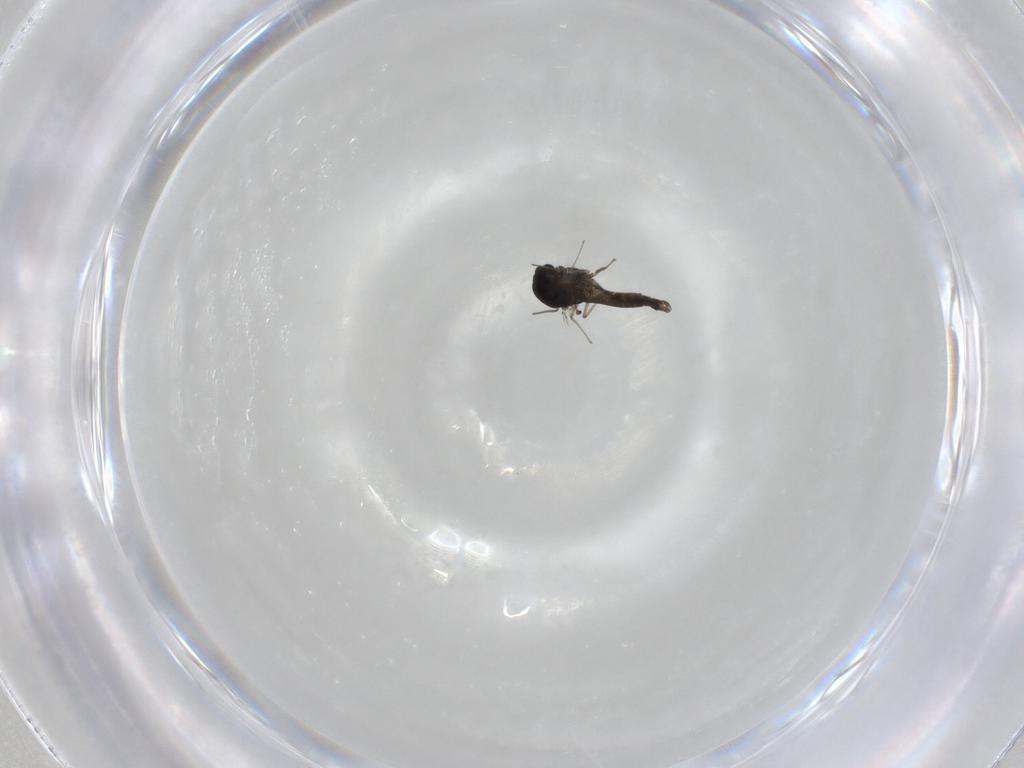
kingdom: Animalia
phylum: Arthropoda
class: Insecta
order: Diptera
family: Chironomidae
